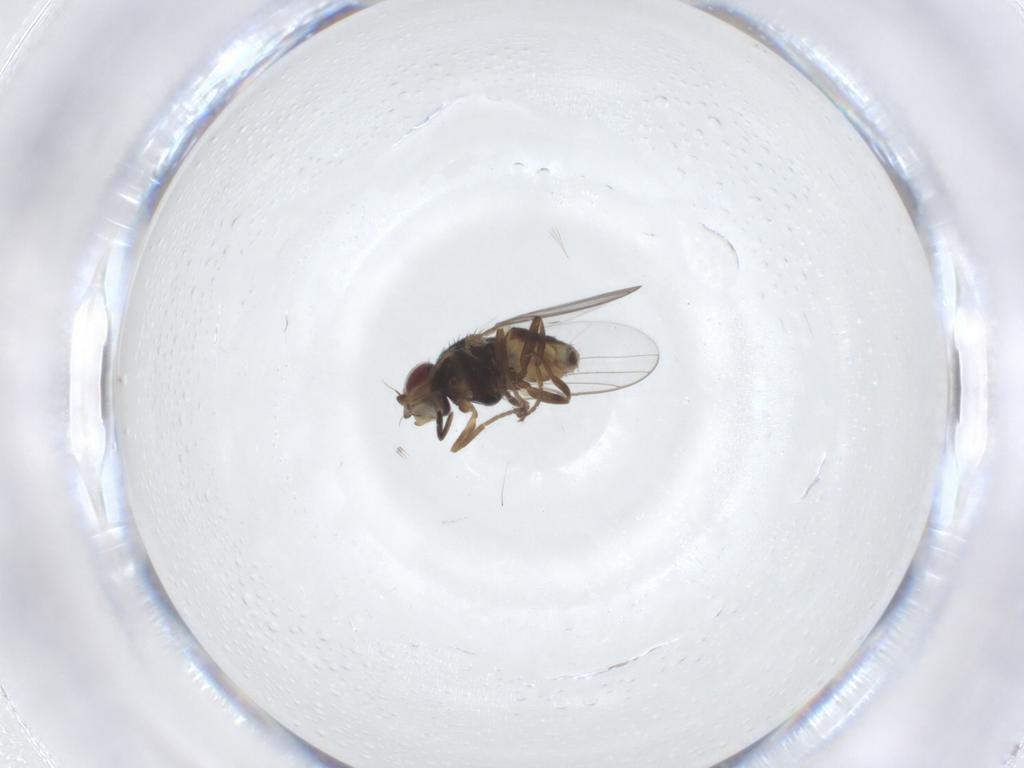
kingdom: Animalia
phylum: Arthropoda
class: Insecta
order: Diptera
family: Chloropidae
